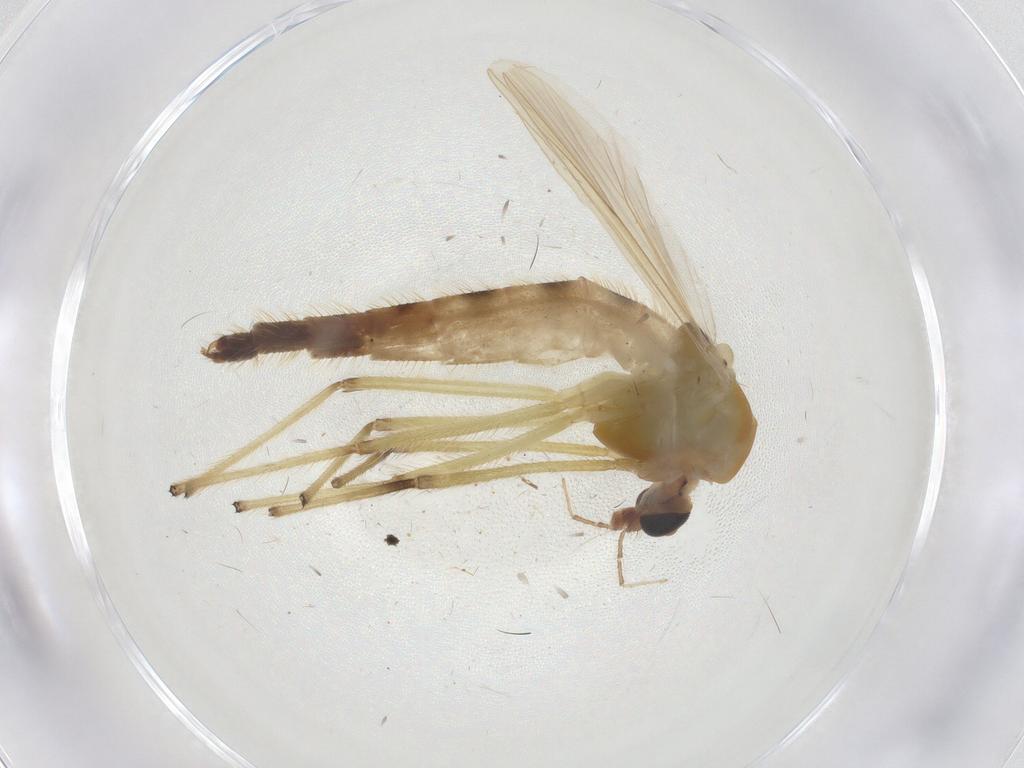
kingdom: Animalia
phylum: Arthropoda
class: Insecta
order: Diptera
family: Chironomidae
